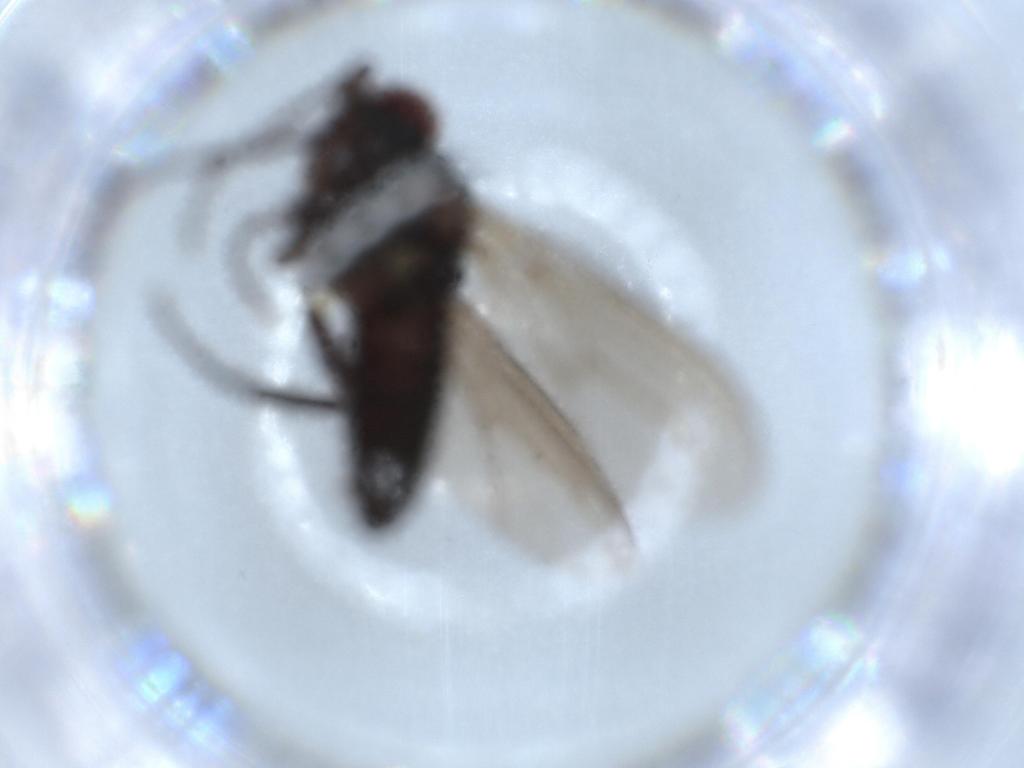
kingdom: Animalia
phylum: Arthropoda
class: Insecta
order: Diptera
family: Dolichopodidae
